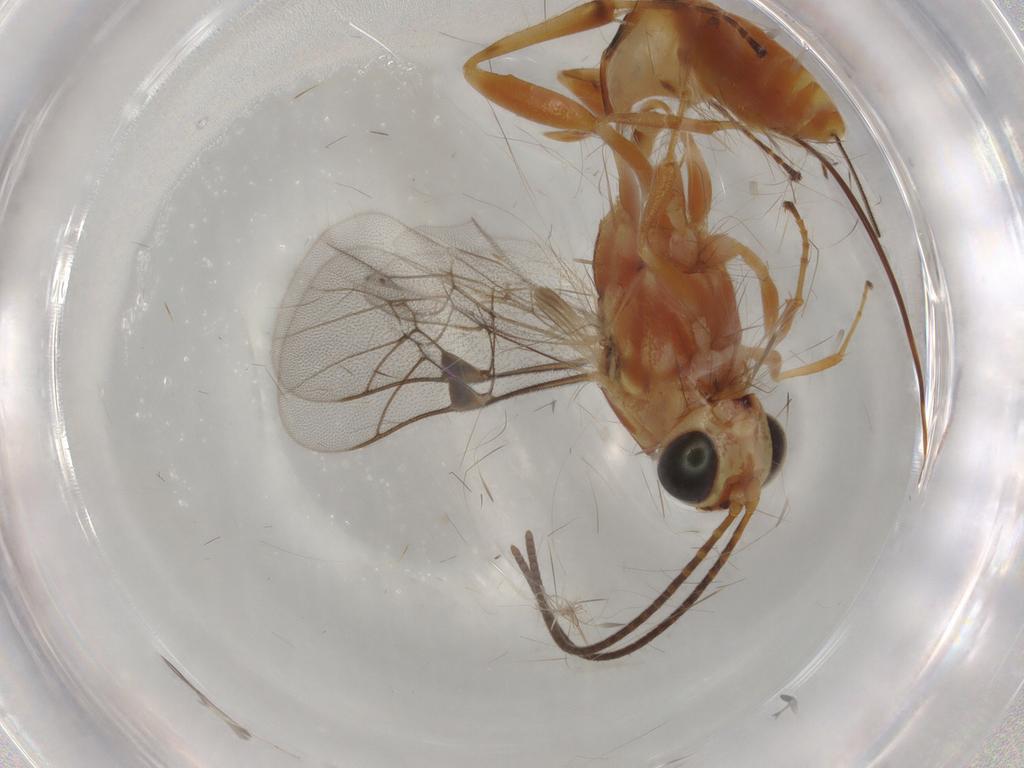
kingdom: Animalia
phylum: Arthropoda
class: Insecta
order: Hymenoptera
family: Ichneumonidae
